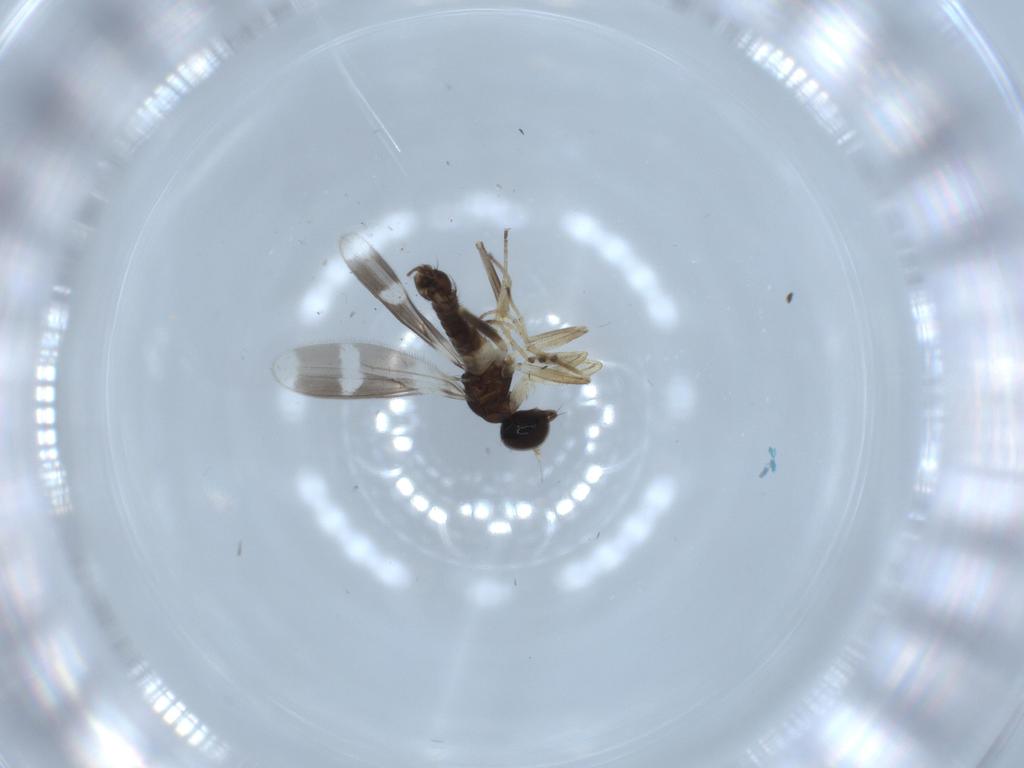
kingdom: Animalia
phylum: Arthropoda
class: Insecta
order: Diptera
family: Hybotidae
